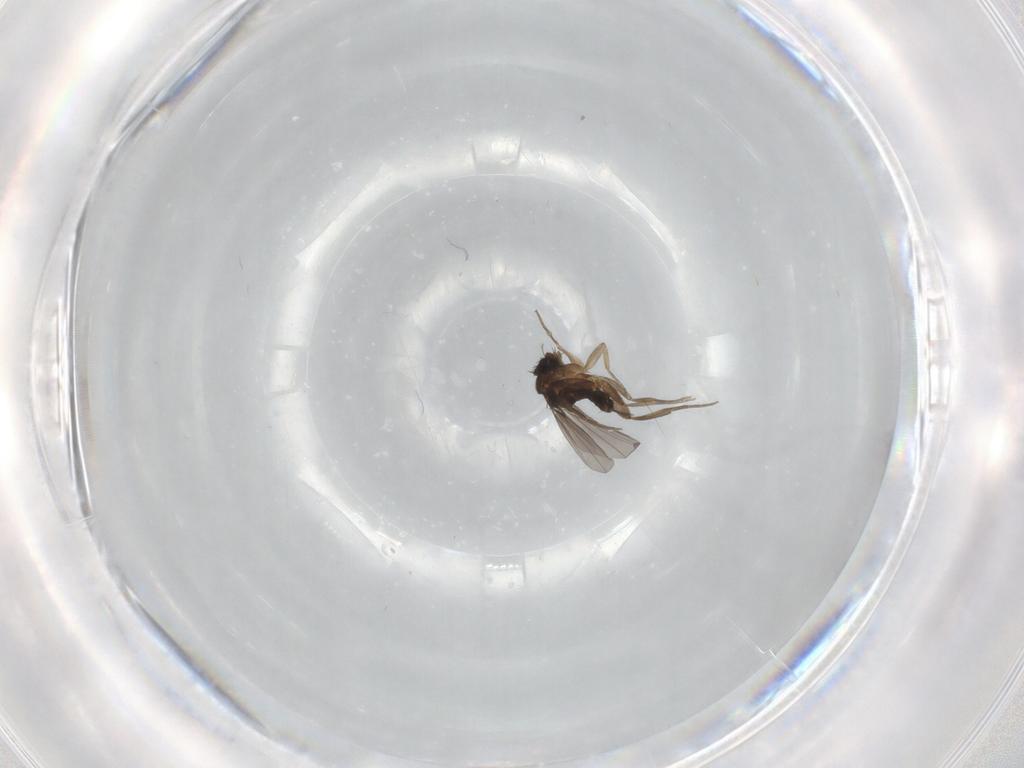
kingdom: Animalia
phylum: Arthropoda
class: Insecta
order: Diptera
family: Phoridae
